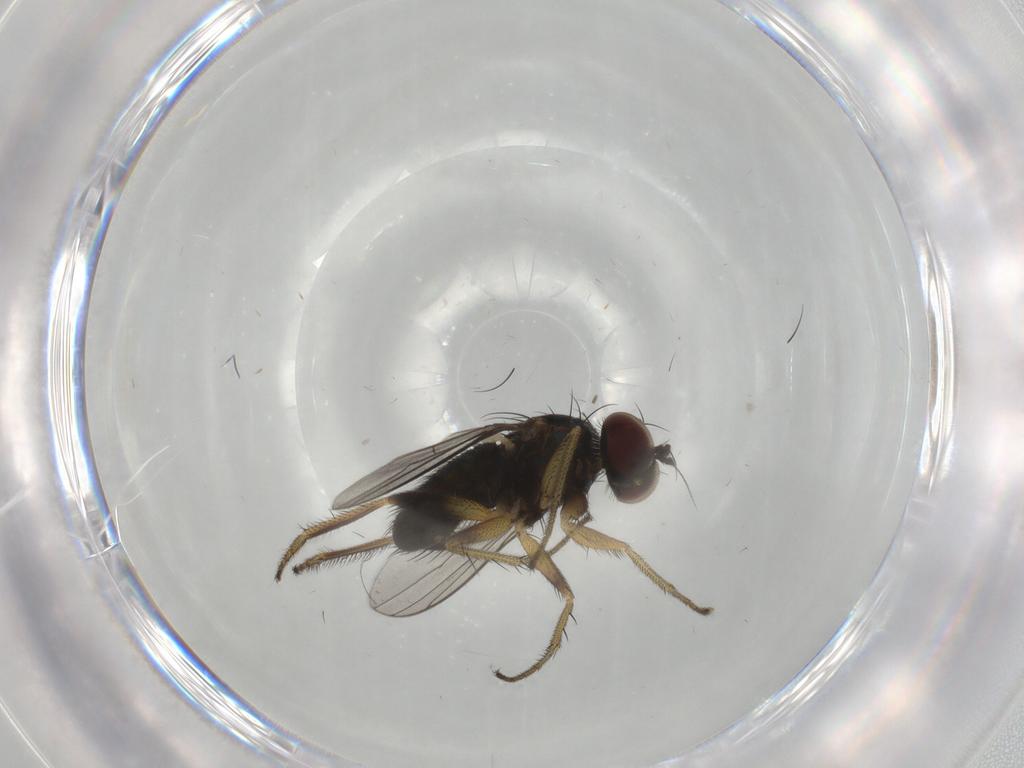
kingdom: Animalia
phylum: Arthropoda
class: Insecta
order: Diptera
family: Dolichopodidae
